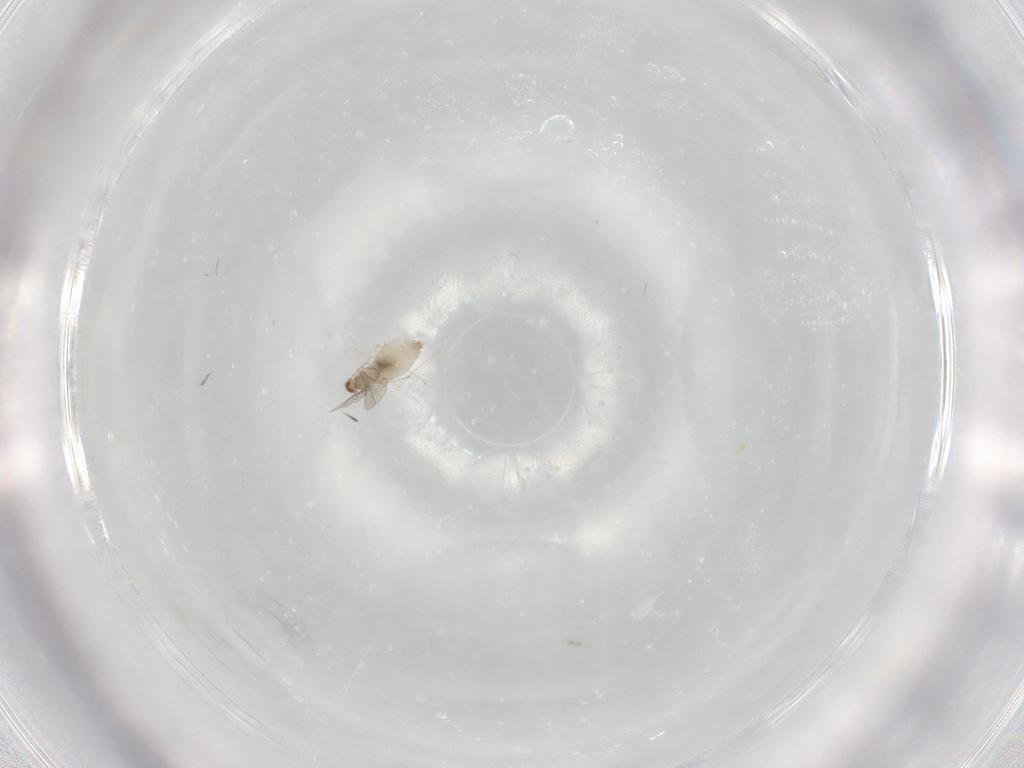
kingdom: Animalia
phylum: Arthropoda
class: Insecta
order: Diptera
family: Cecidomyiidae
